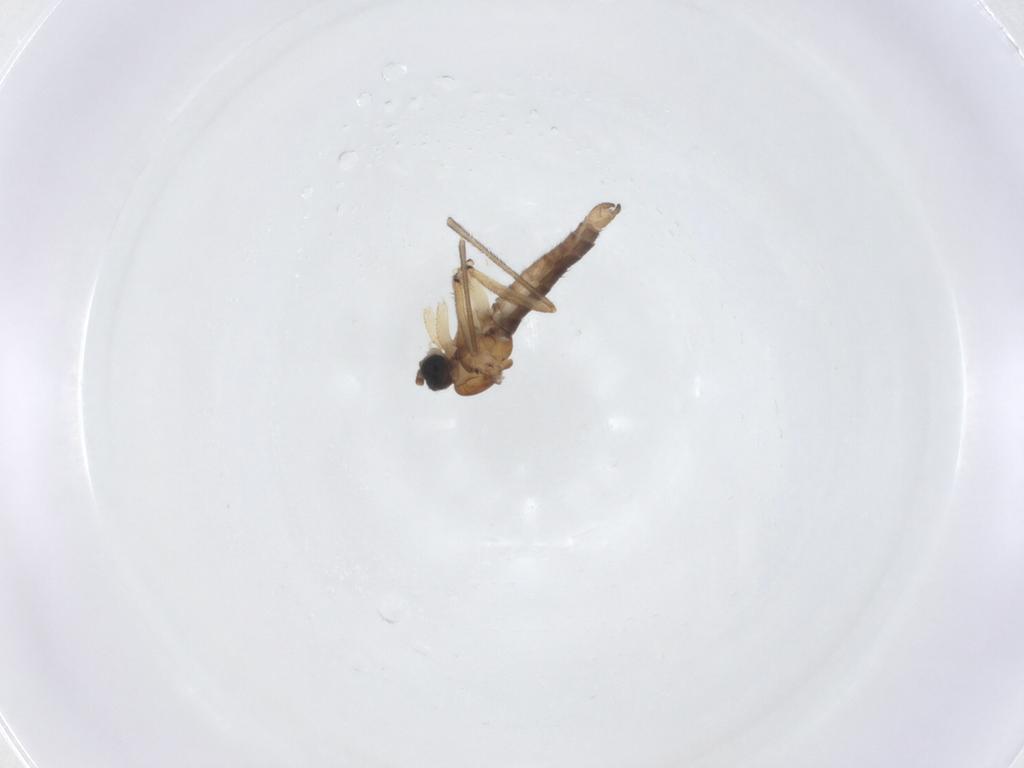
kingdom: Animalia
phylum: Arthropoda
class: Insecta
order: Diptera
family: Sciaridae
